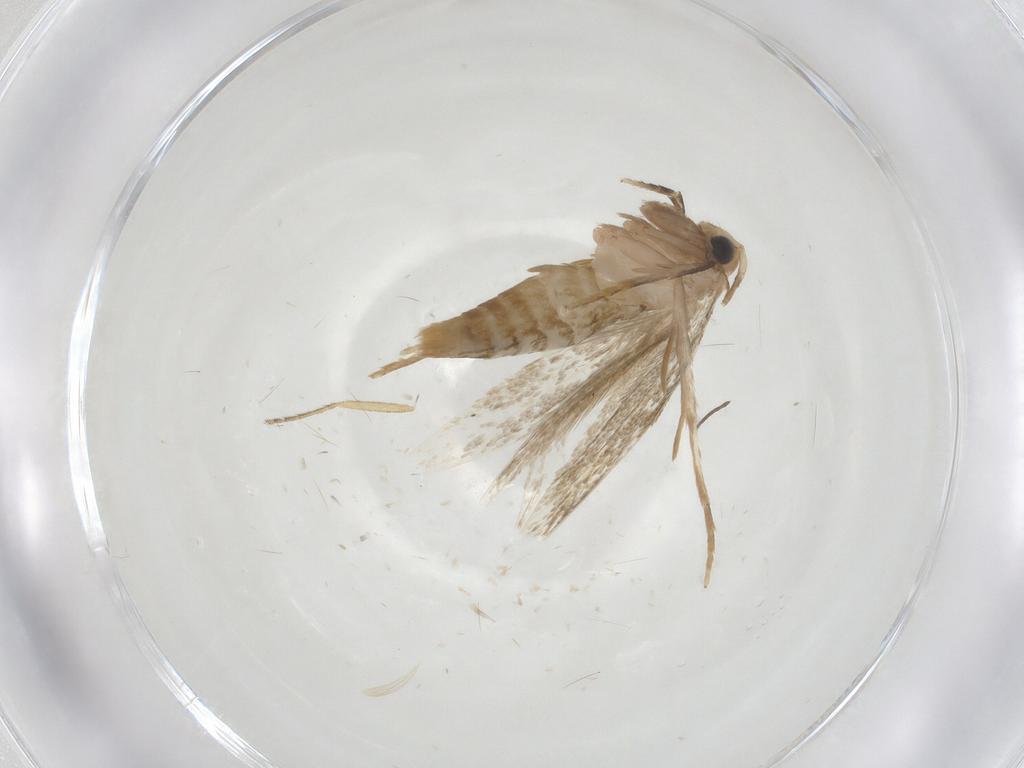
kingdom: Animalia
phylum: Arthropoda
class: Insecta
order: Lepidoptera
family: Tineidae
